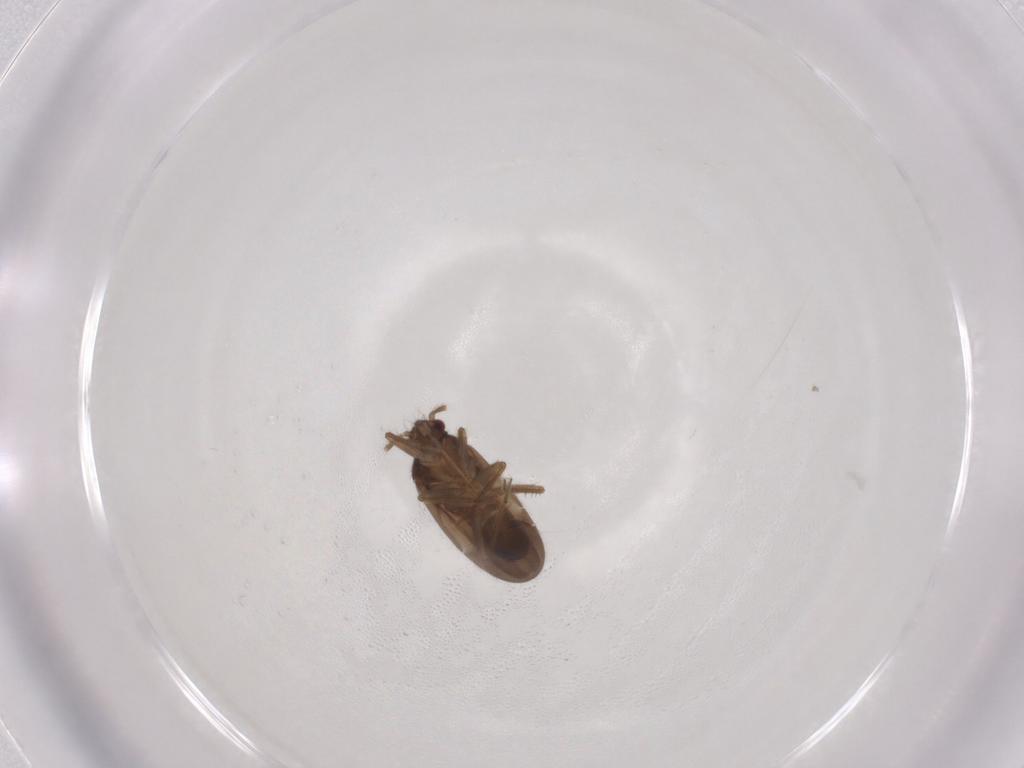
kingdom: Animalia
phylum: Arthropoda
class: Insecta
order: Hemiptera
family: Ceratocombidae
